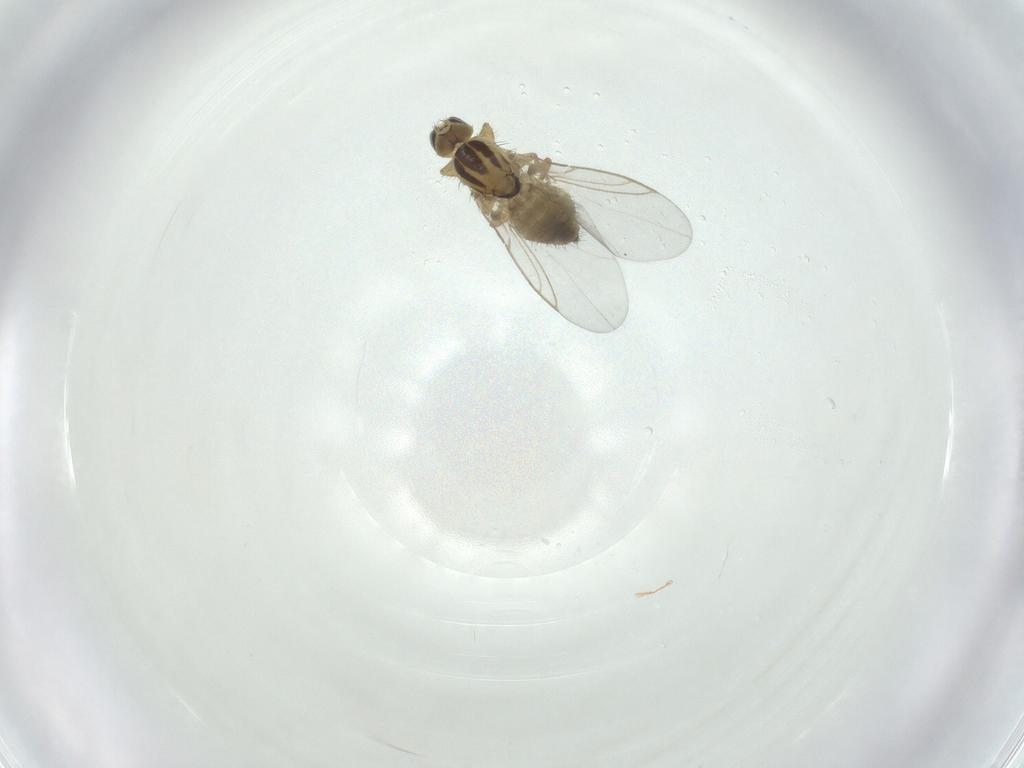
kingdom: Animalia
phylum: Arthropoda
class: Insecta
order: Diptera
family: Agromyzidae
